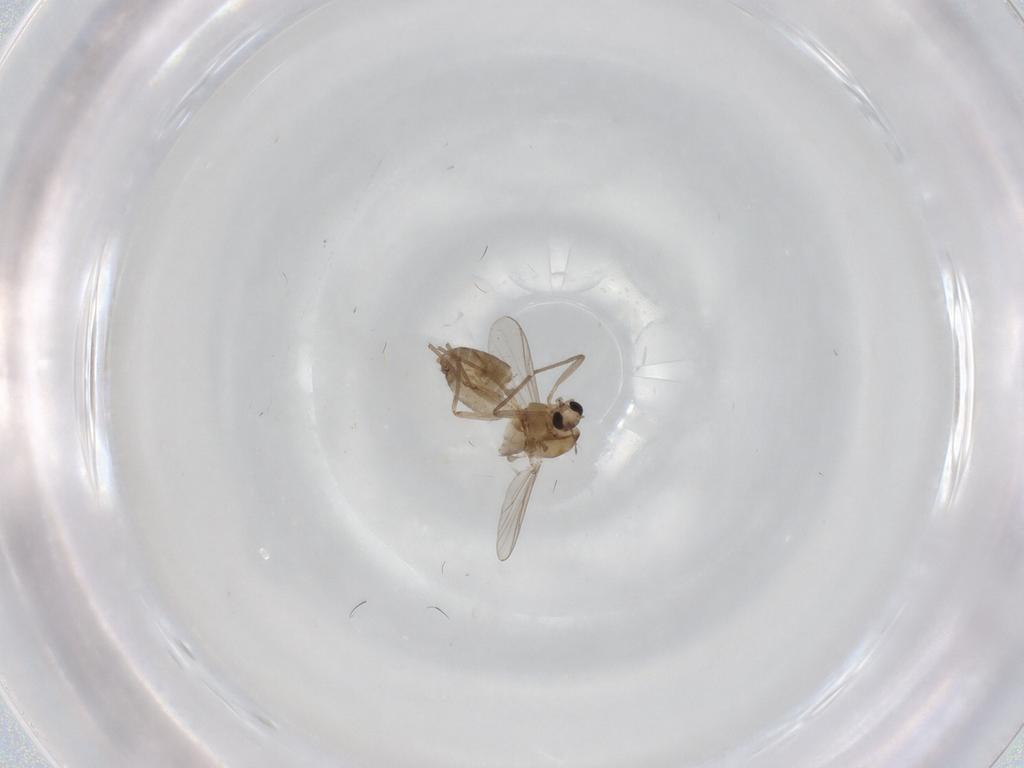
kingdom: Animalia
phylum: Arthropoda
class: Insecta
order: Diptera
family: Chironomidae
